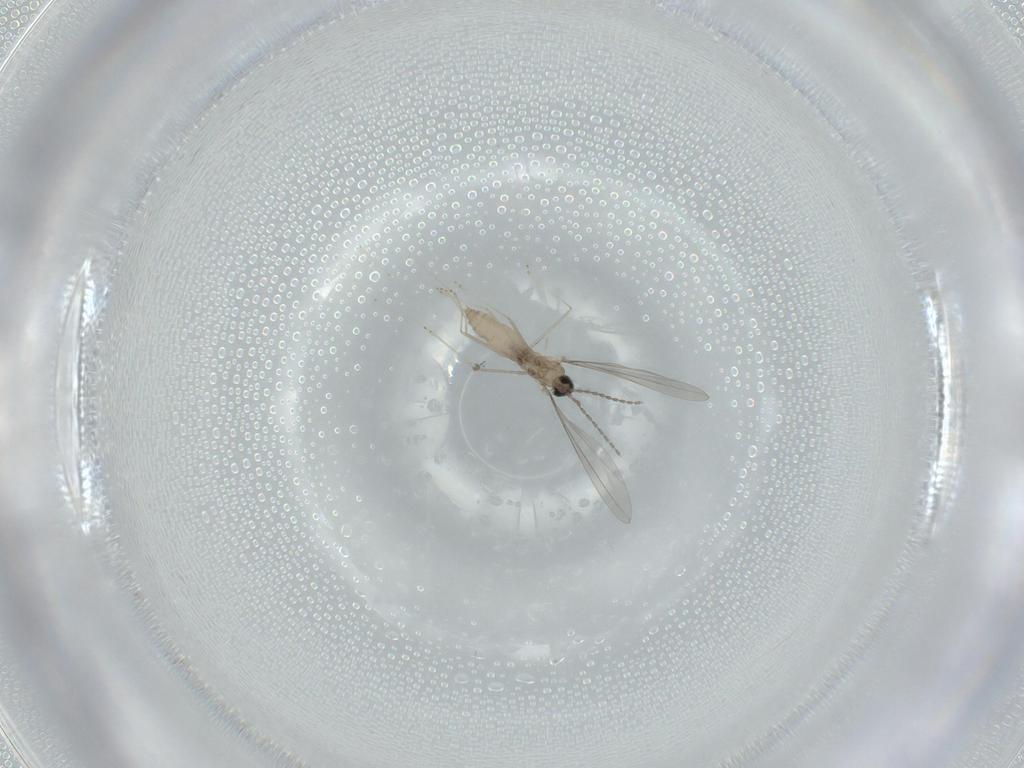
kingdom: Animalia
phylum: Arthropoda
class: Insecta
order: Diptera
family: Cecidomyiidae
